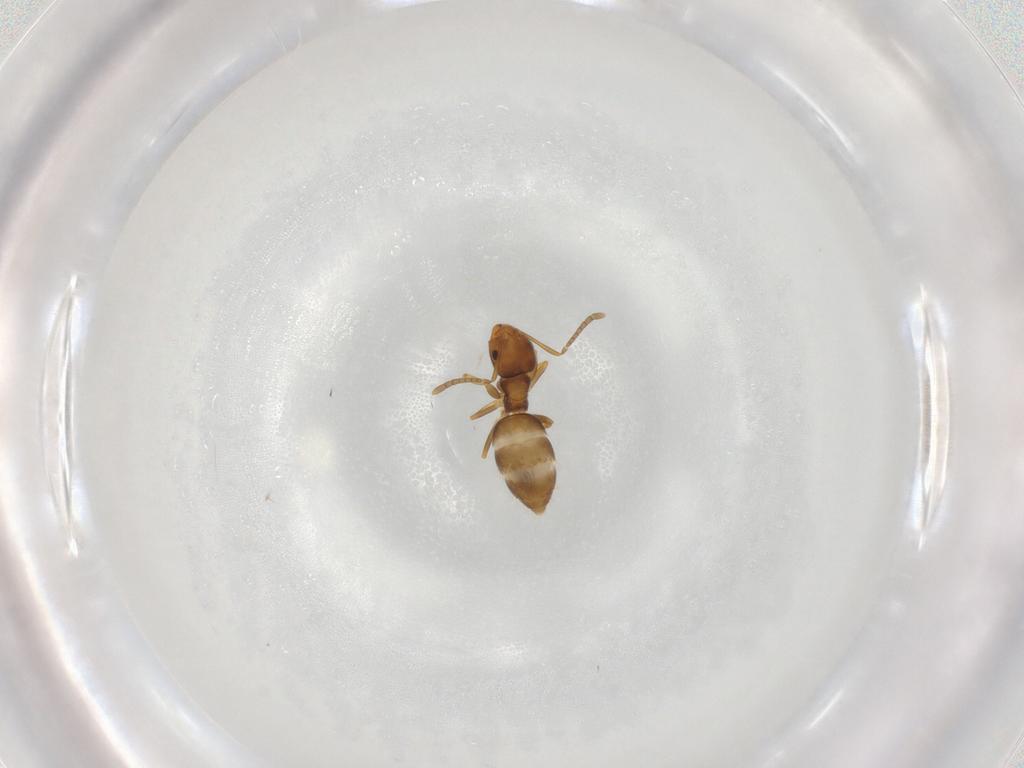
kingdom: Animalia
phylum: Arthropoda
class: Insecta
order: Hymenoptera
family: Formicidae
